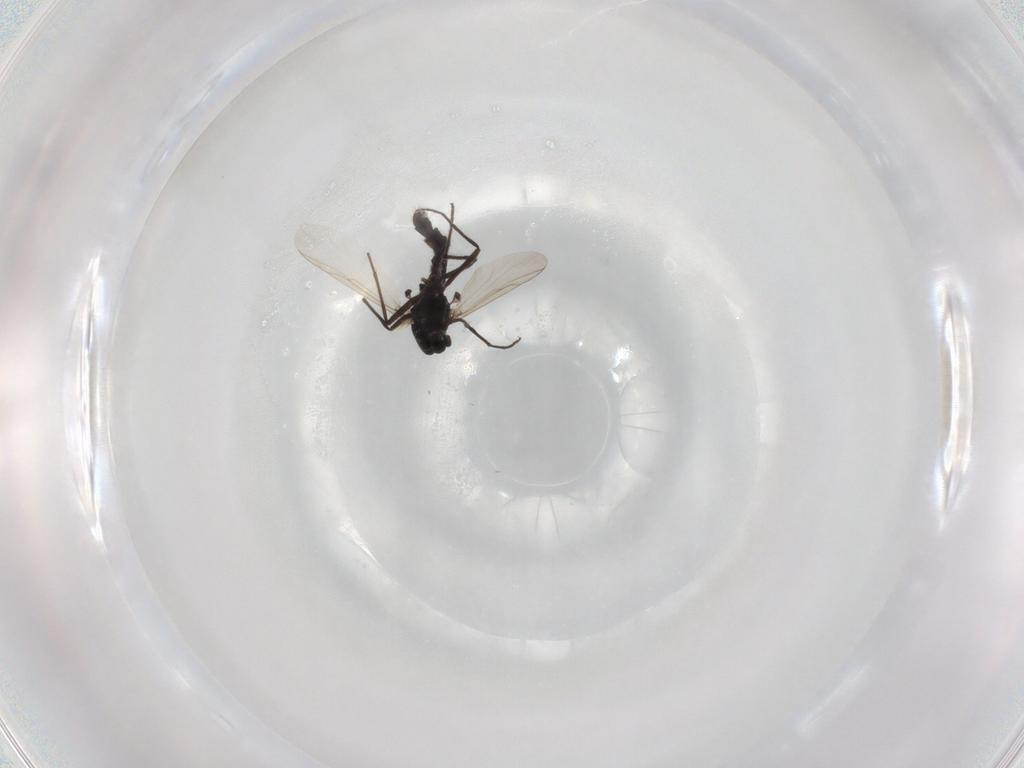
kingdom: Animalia
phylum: Arthropoda
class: Insecta
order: Diptera
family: Chironomidae
